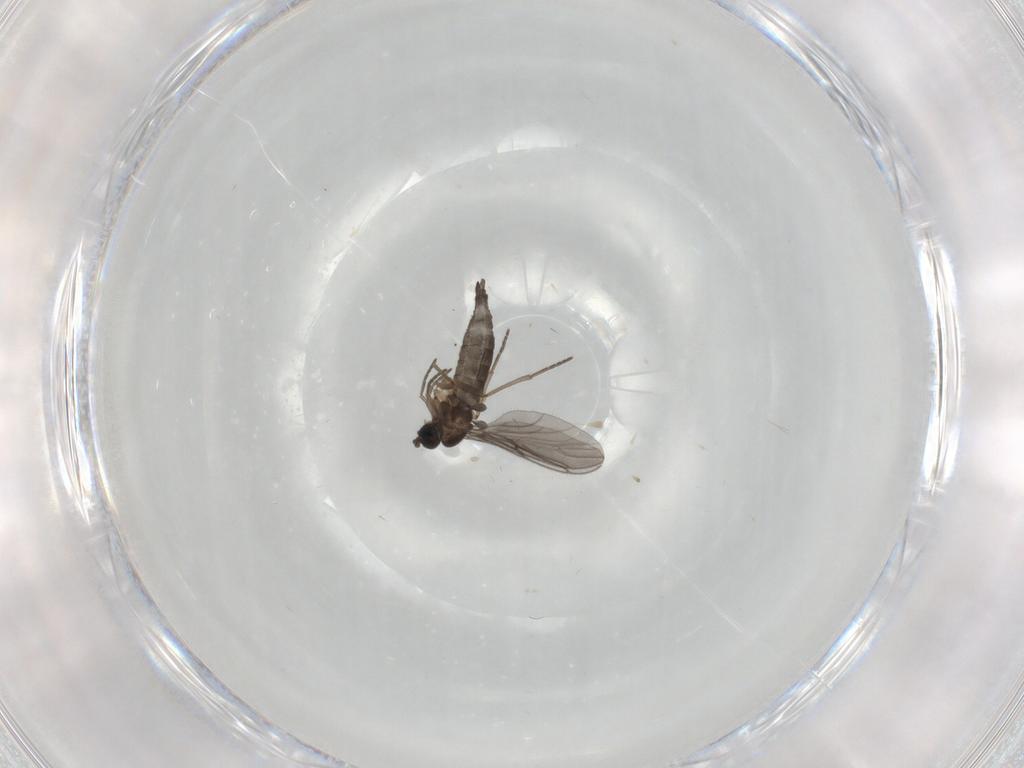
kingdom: Animalia
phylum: Arthropoda
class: Insecta
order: Diptera
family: Sciaridae
